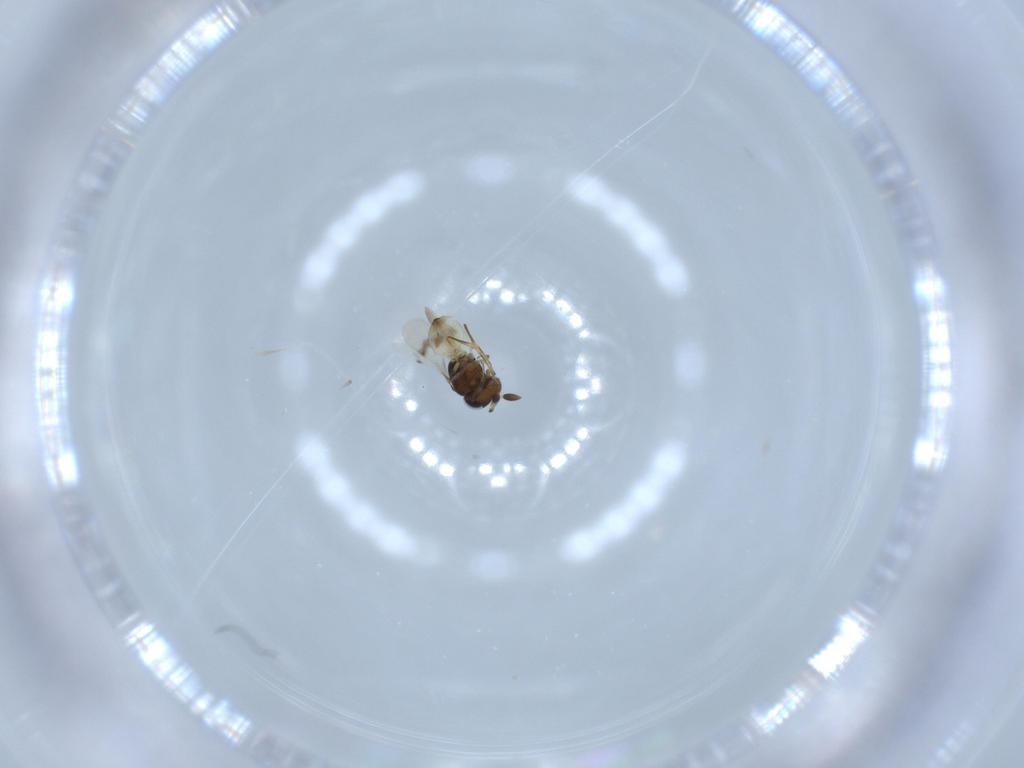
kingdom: Animalia
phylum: Arthropoda
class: Arachnida
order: Araneae
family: Pholcidae
